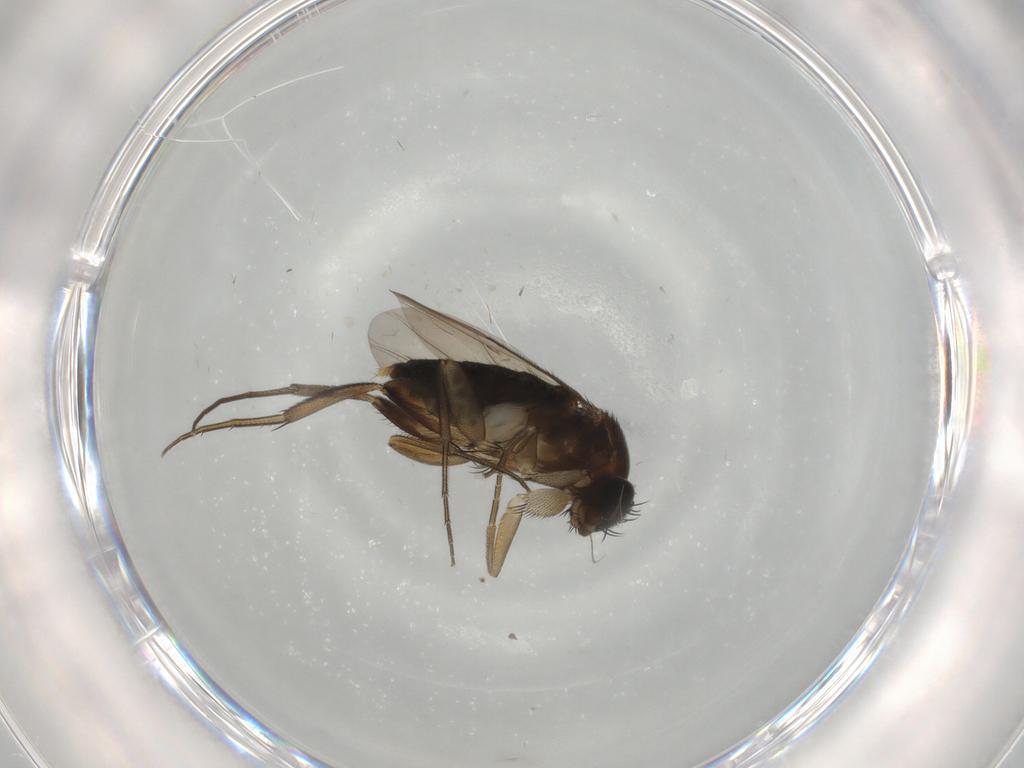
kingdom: Animalia
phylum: Arthropoda
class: Insecta
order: Diptera
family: Phoridae
